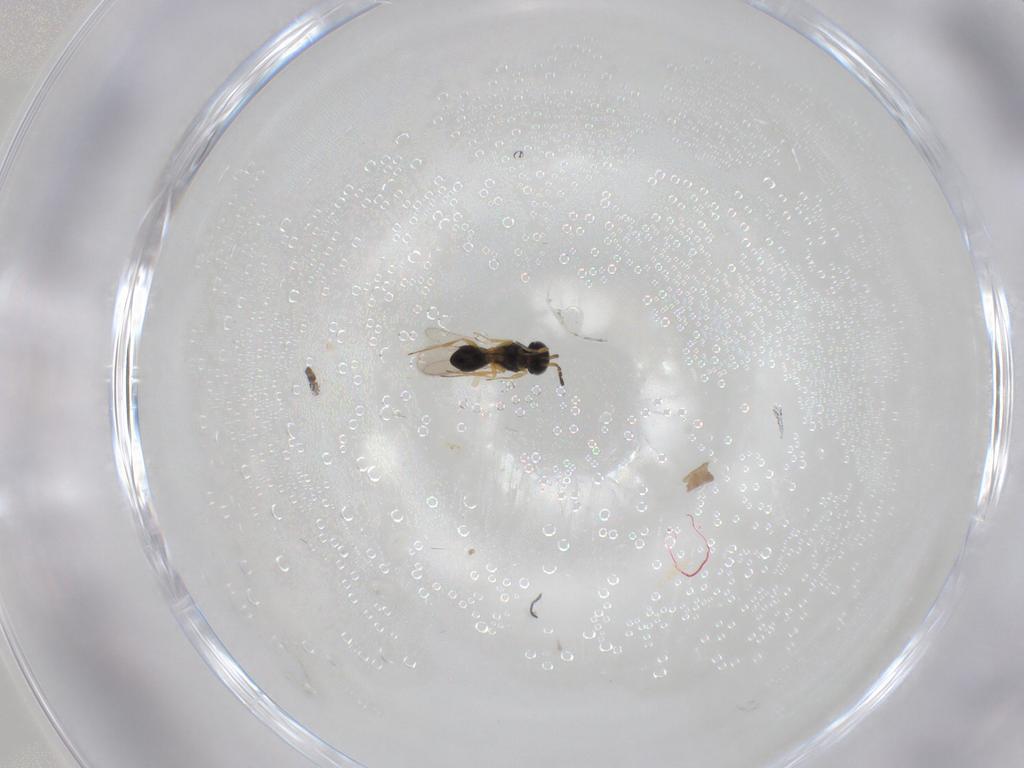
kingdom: Animalia
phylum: Arthropoda
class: Insecta
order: Hymenoptera
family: Scelionidae
